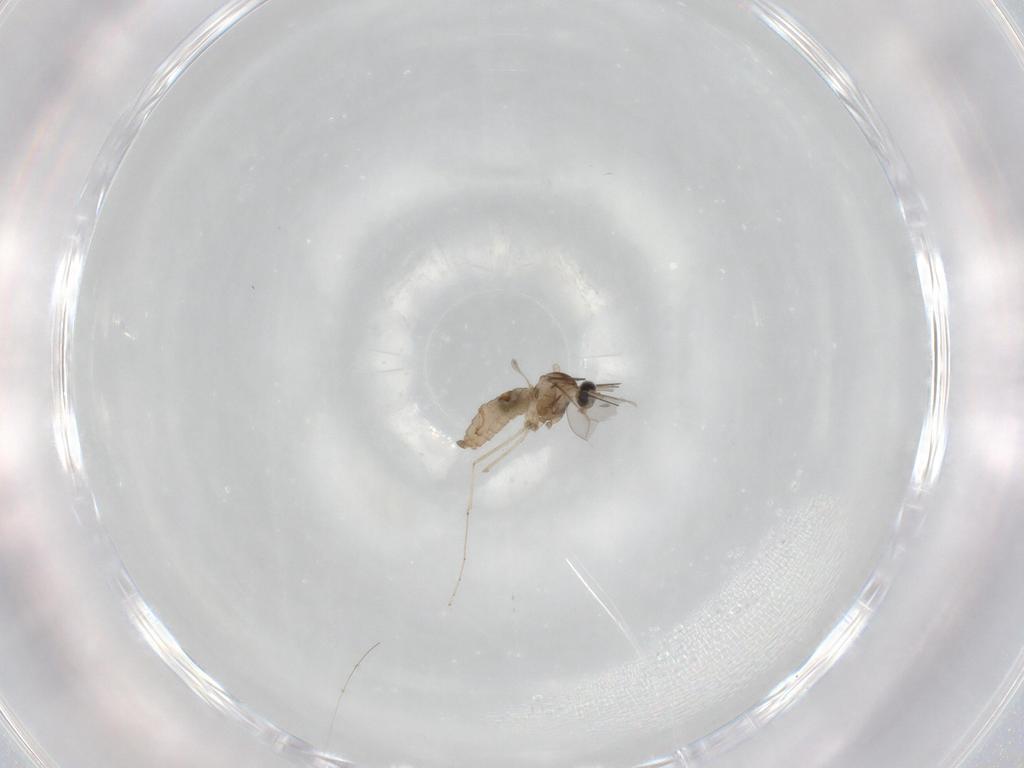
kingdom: Animalia
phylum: Arthropoda
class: Insecta
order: Diptera
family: Cecidomyiidae
